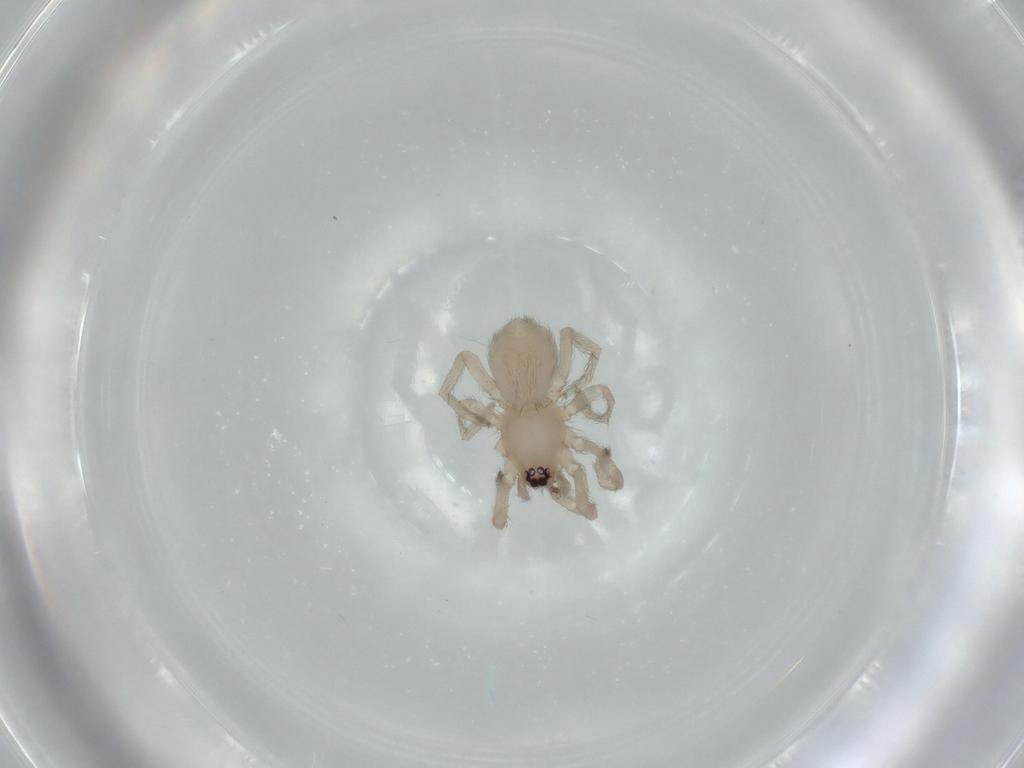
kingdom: Animalia
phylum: Arthropoda
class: Arachnida
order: Araneae
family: Gnaphosidae
